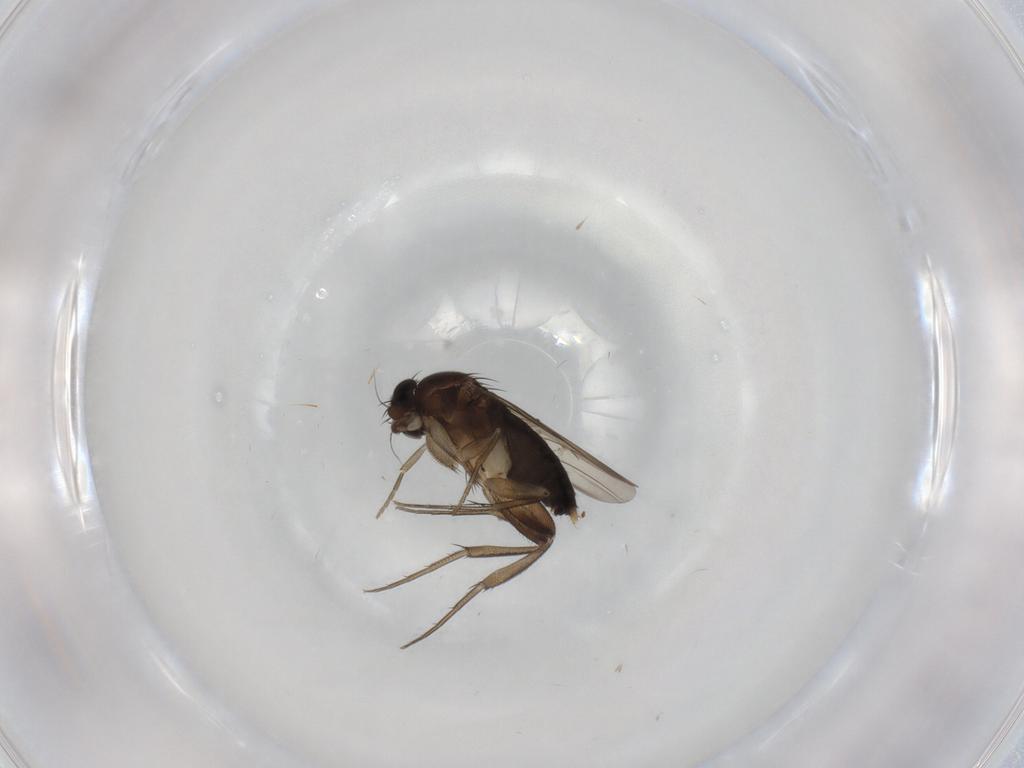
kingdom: Animalia
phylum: Arthropoda
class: Insecta
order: Diptera
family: Phoridae
